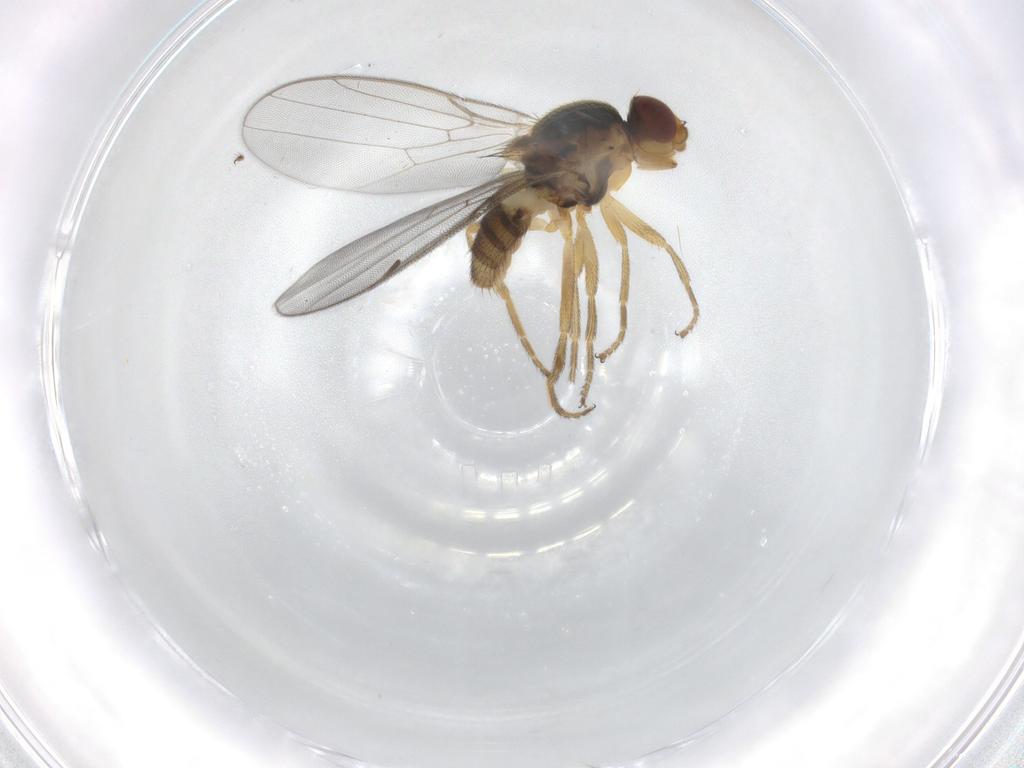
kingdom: Animalia
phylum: Arthropoda
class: Insecta
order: Diptera
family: Chloropidae
